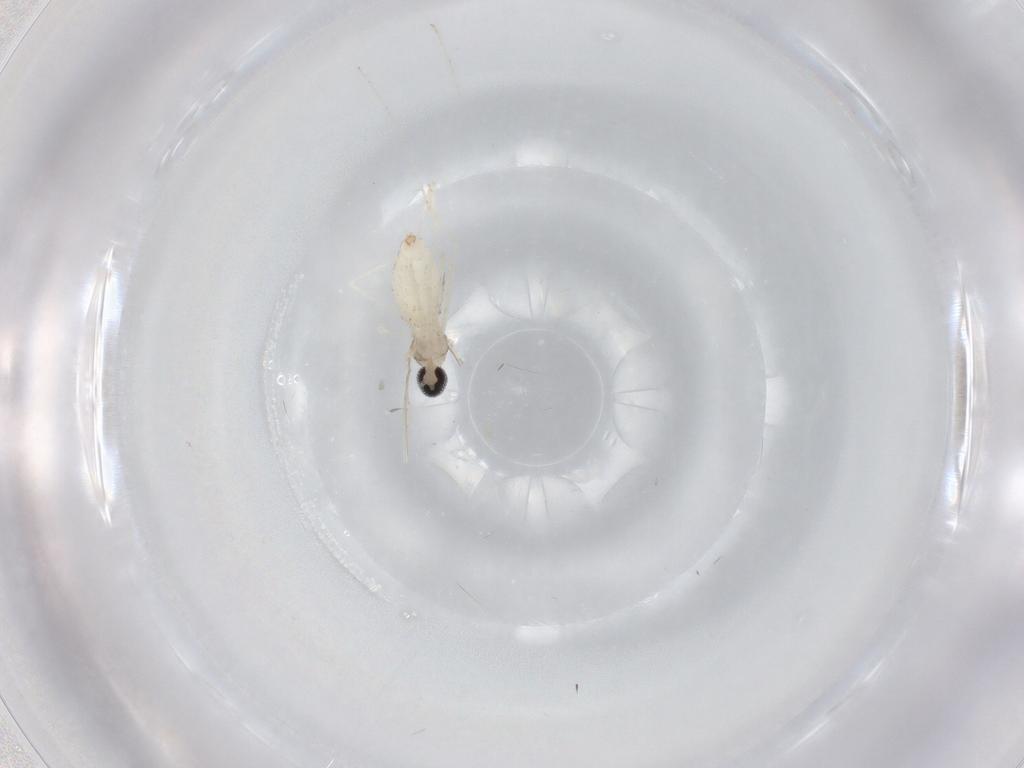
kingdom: Animalia
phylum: Arthropoda
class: Insecta
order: Diptera
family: Cecidomyiidae
